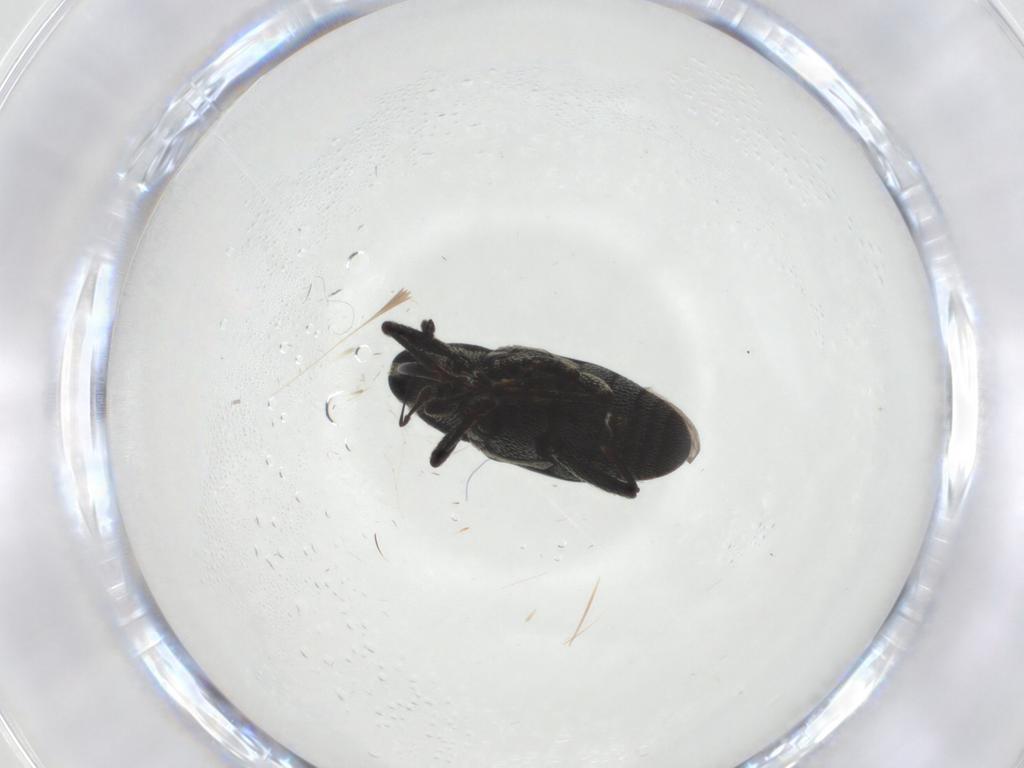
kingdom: Animalia
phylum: Arthropoda
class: Insecta
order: Coleoptera
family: Curculionidae
